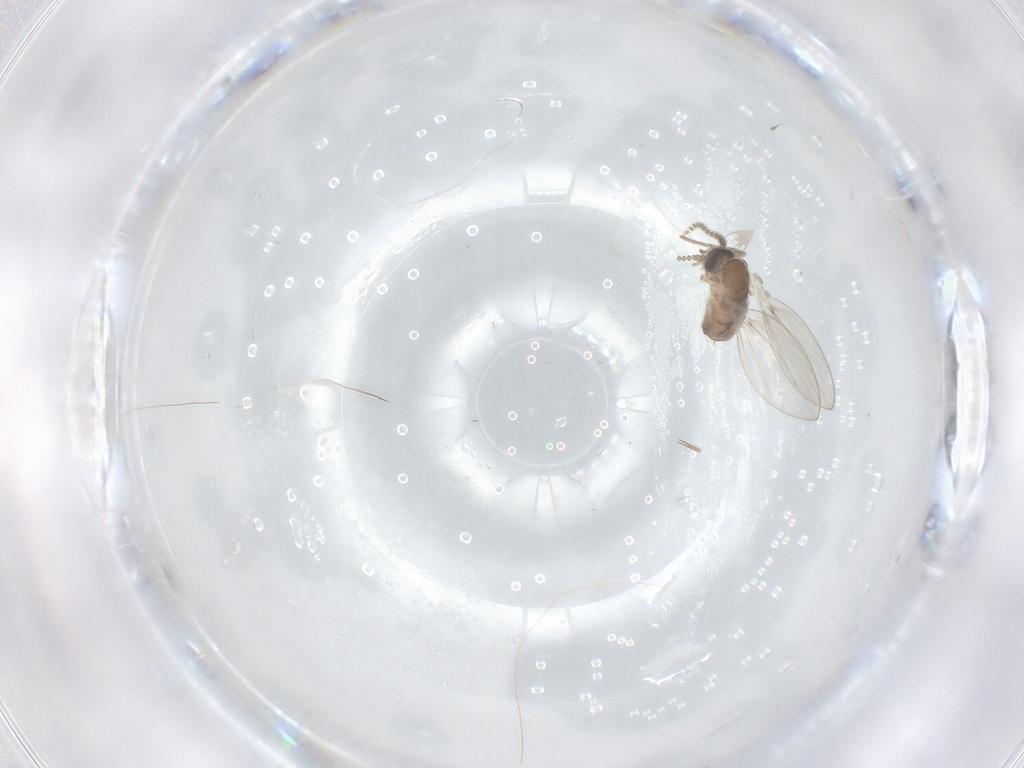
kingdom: Animalia
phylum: Arthropoda
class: Insecta
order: Diptera
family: Psychodidae
